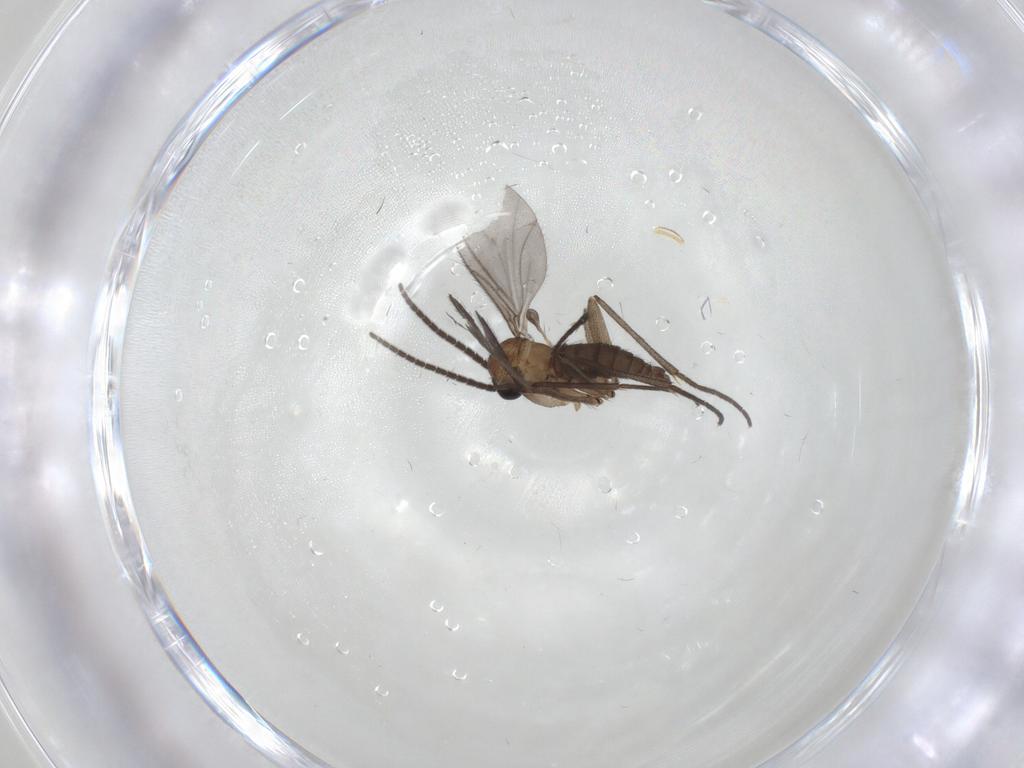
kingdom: Animalia
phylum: Arthropoda
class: Insecta
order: Diptera
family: Sciaridae
